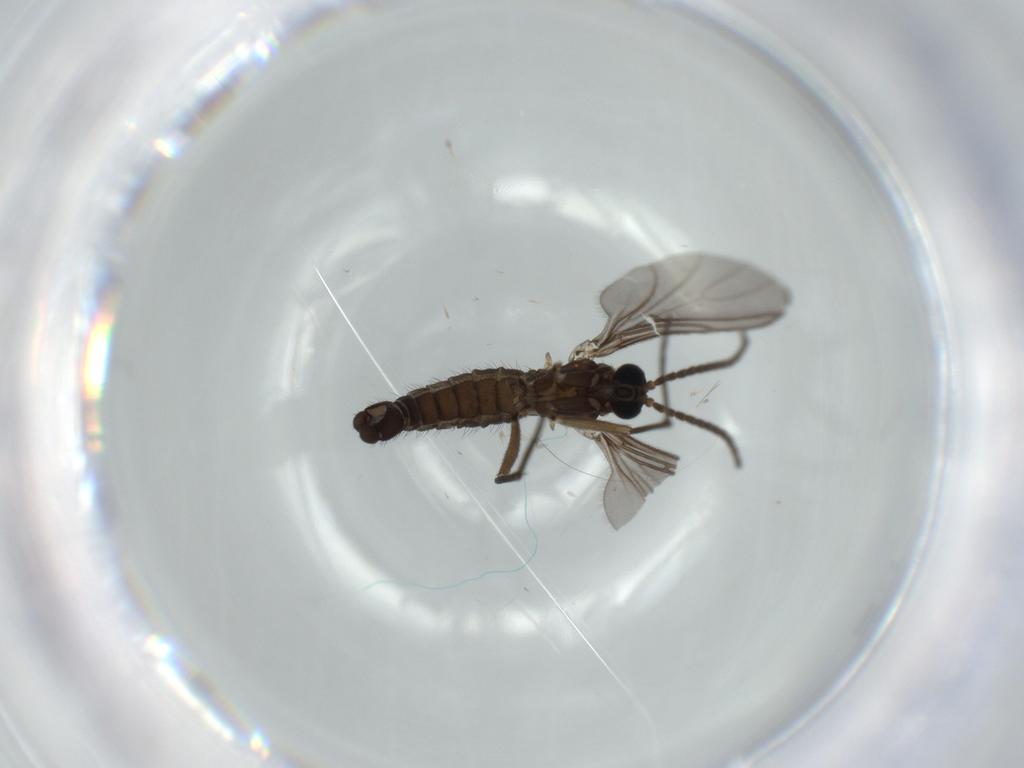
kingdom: Animalia
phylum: Arthropoda
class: Insecta
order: Diptera
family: Sciaridae
